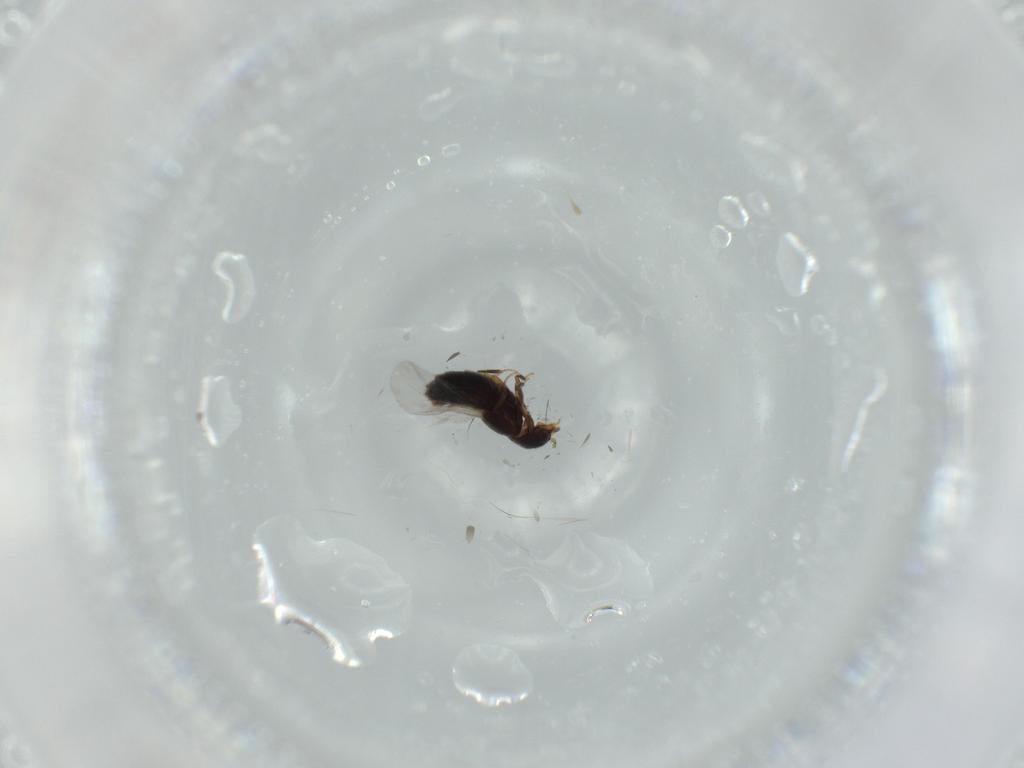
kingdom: Animalia
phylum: Arthropoda
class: Insecta
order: Coleoptera
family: Elateridae
